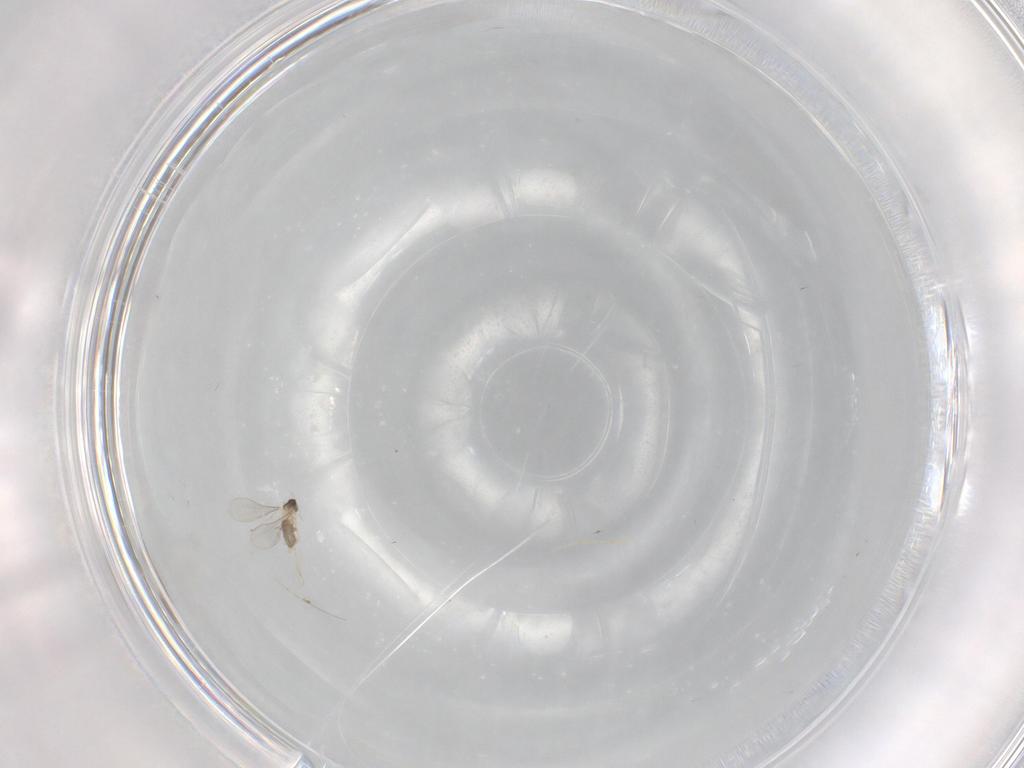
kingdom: Animalia
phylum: Arthropoda
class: Insecta
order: Diptera
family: Cecidomyiidae
